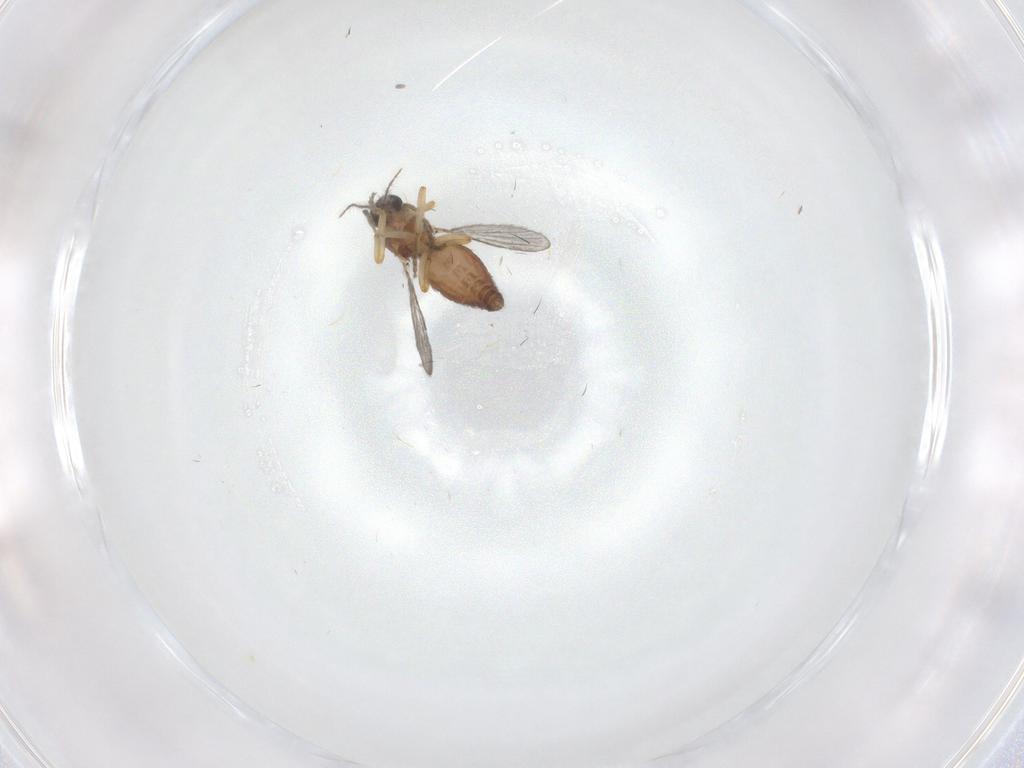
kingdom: Animalia
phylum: Arthropoda
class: Insecta
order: Diptera
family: Ceratopogonidae
